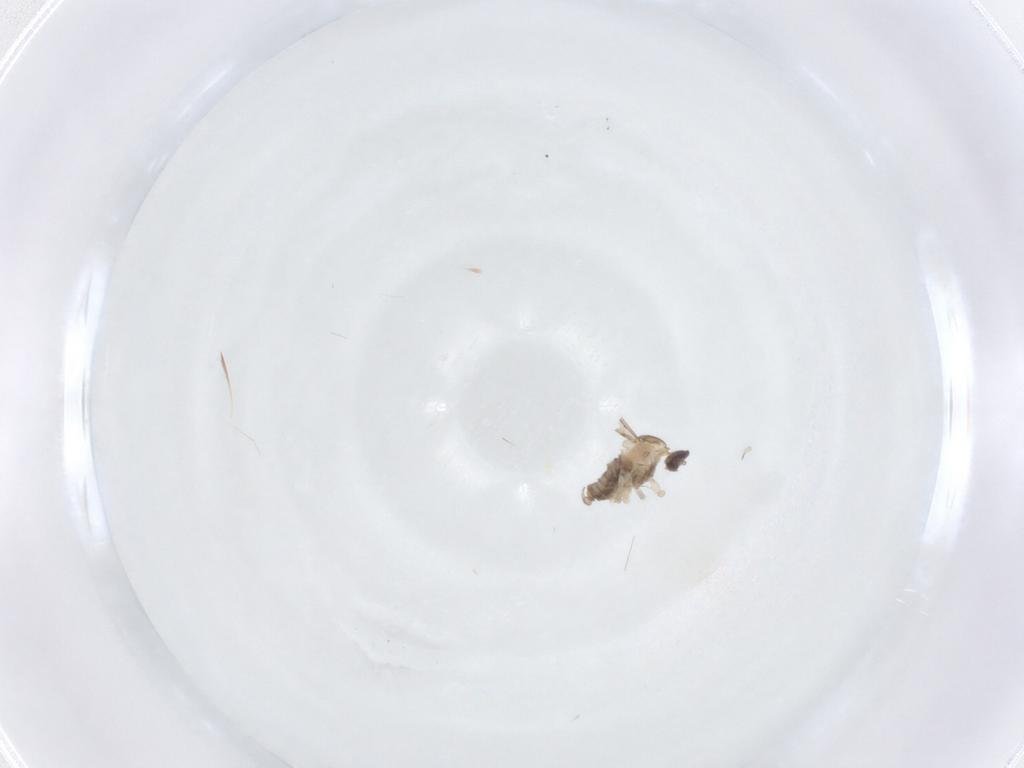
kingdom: Animalia
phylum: Arthropoda
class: Insecta
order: Diptera
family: Cecidomyiidae
